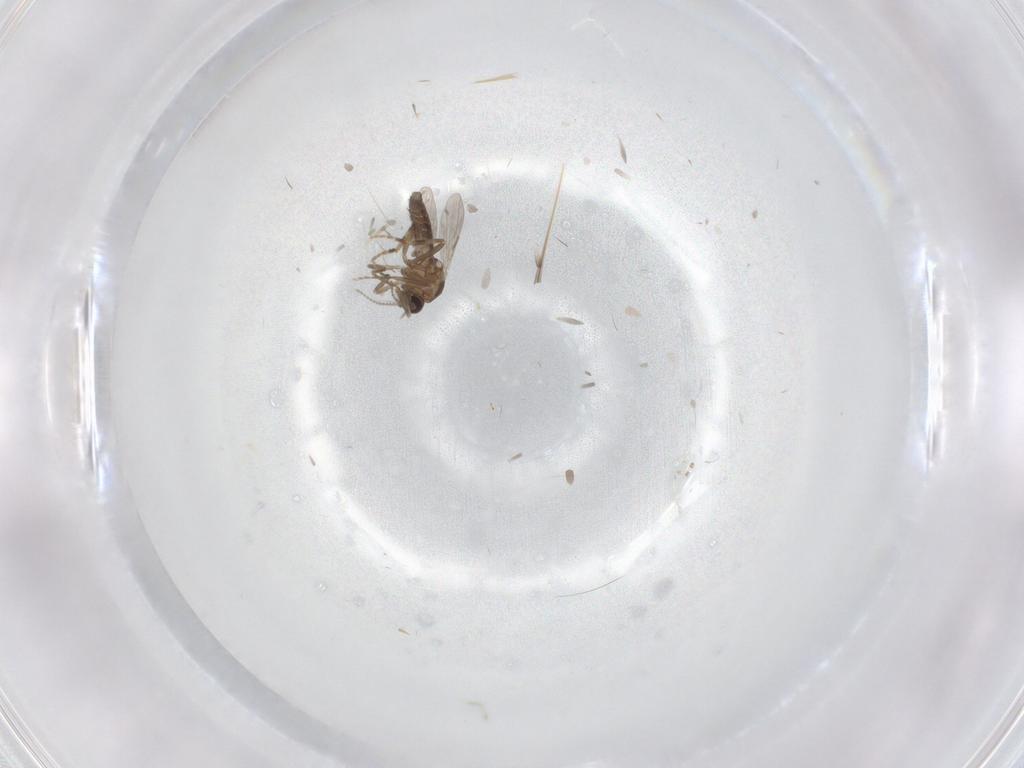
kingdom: Animalia
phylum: Arthropoda
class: Insecta
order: Diptera
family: Ceratopogonidae
